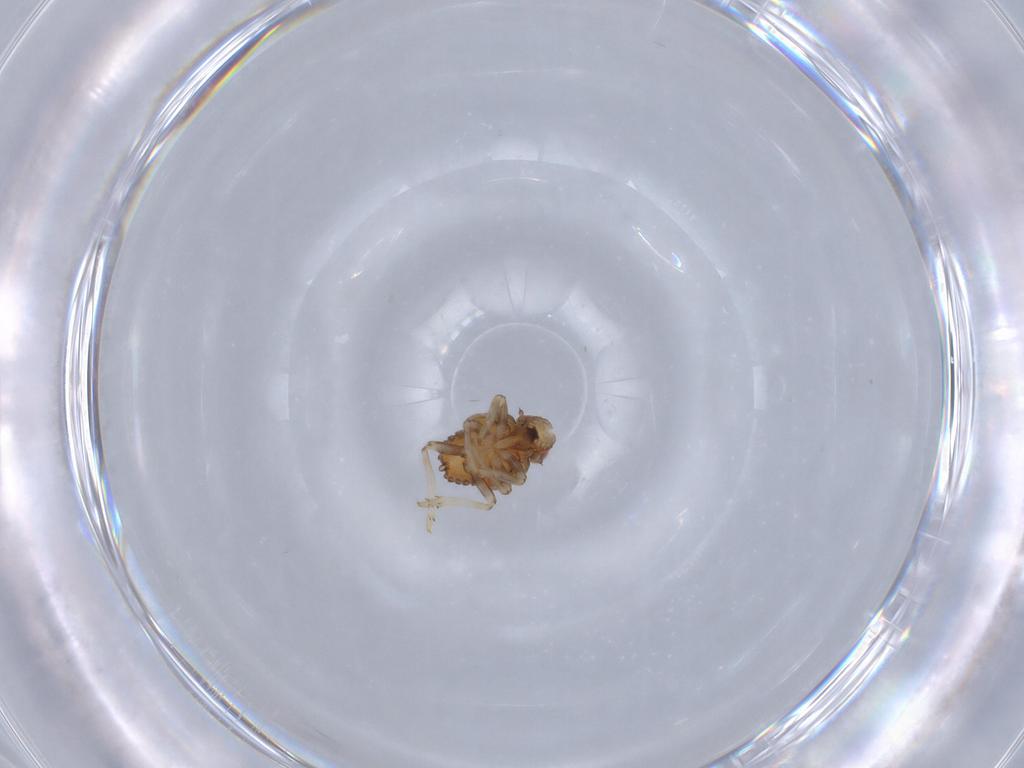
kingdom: Animalia
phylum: Arthropoda
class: Insecta
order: Hemiptera
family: Issidae
